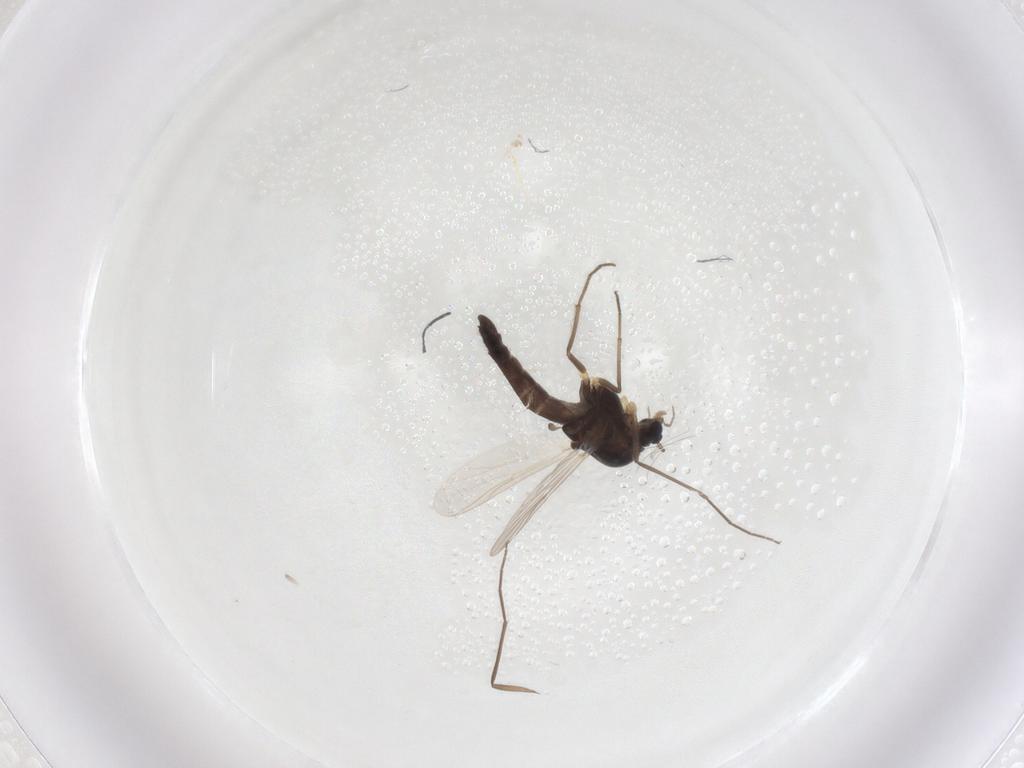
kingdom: Animalia
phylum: Arthropoda
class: Insecta
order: Diptera
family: Chironomidae
